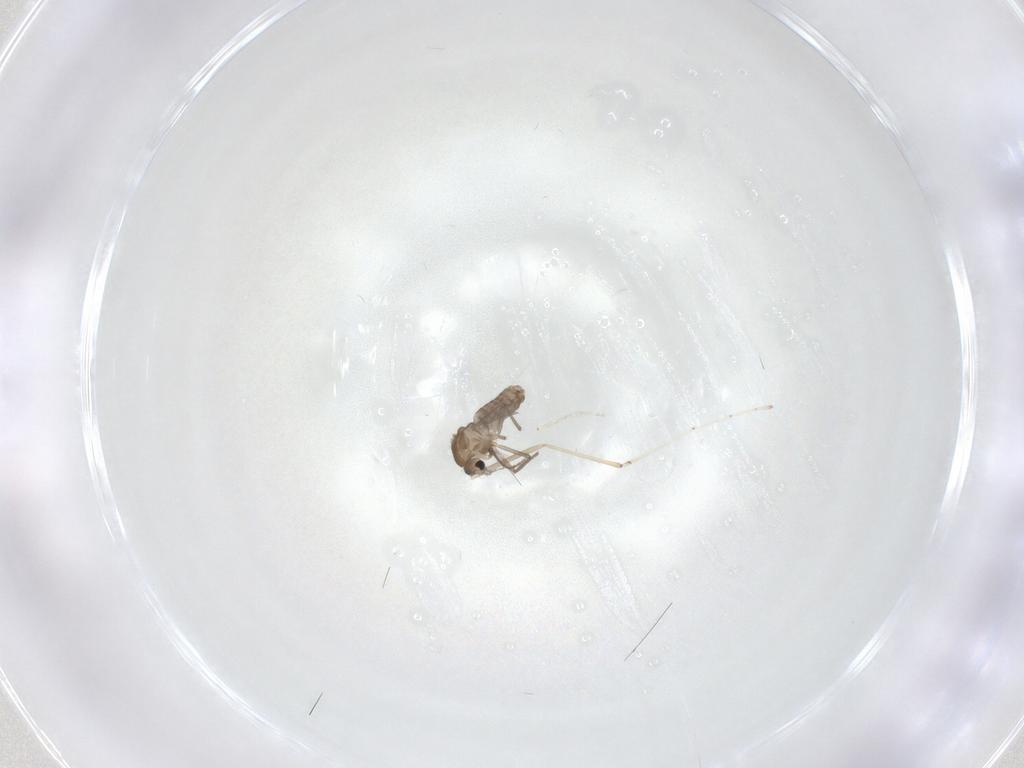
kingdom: Animalia
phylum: Arthropoda
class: Insecta
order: Diptera
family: Chironomidae
